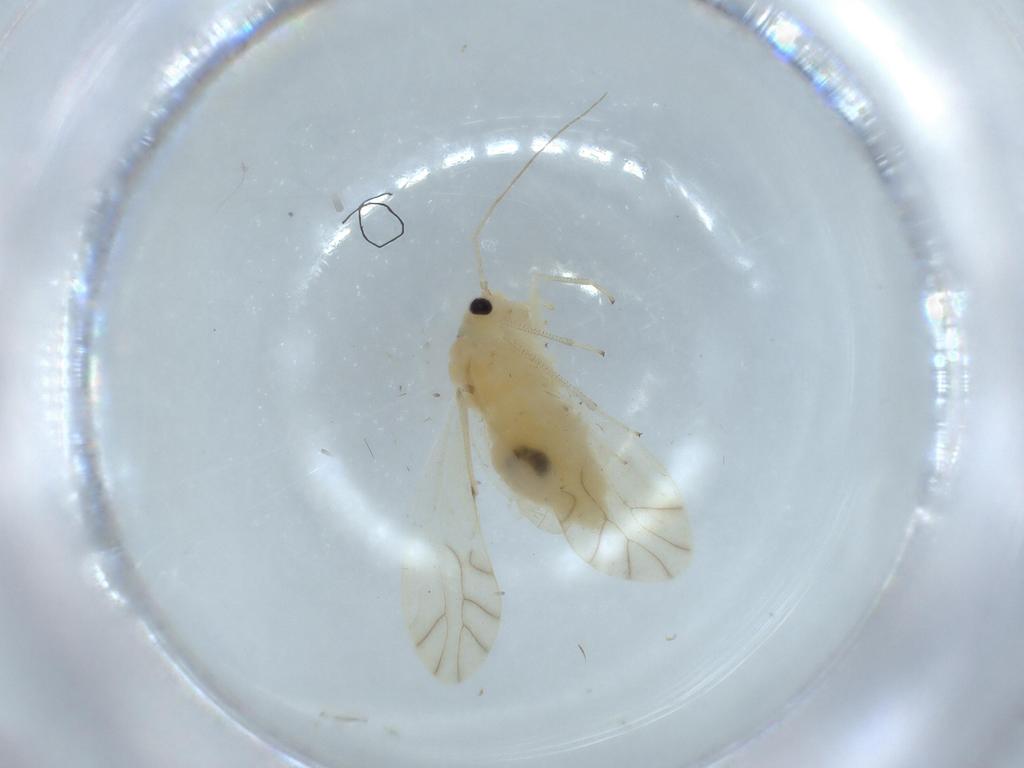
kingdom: Animalia
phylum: Arthropoda
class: Insecta
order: Psocodea
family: Caeciliusidae
